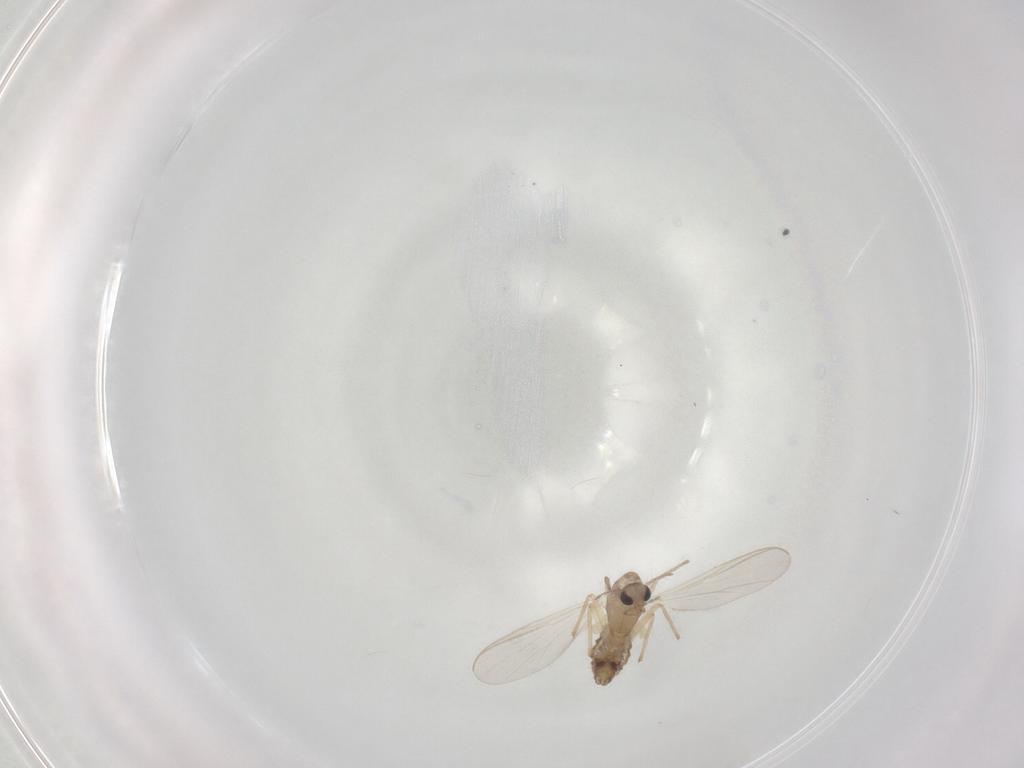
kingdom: Animalia
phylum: Arthropoda
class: Insecta
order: Diptera
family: Cecidomyiidae
